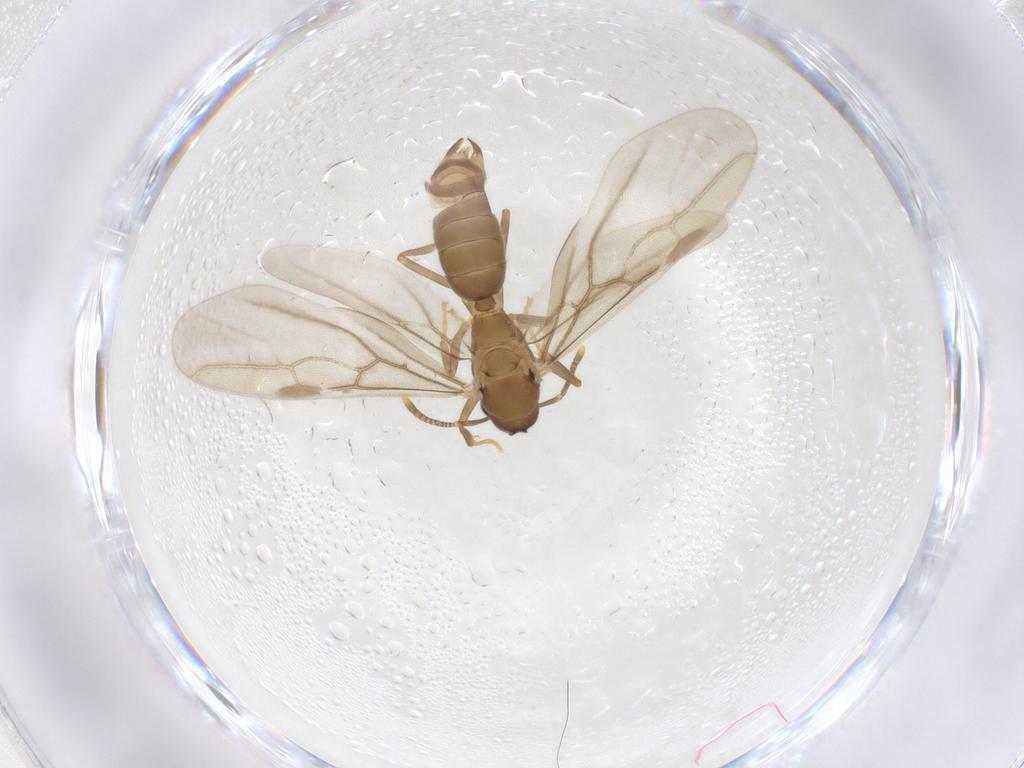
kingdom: Animalia
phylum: Arthropoda
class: Insecta
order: Hymenoptera
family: Formicidae
